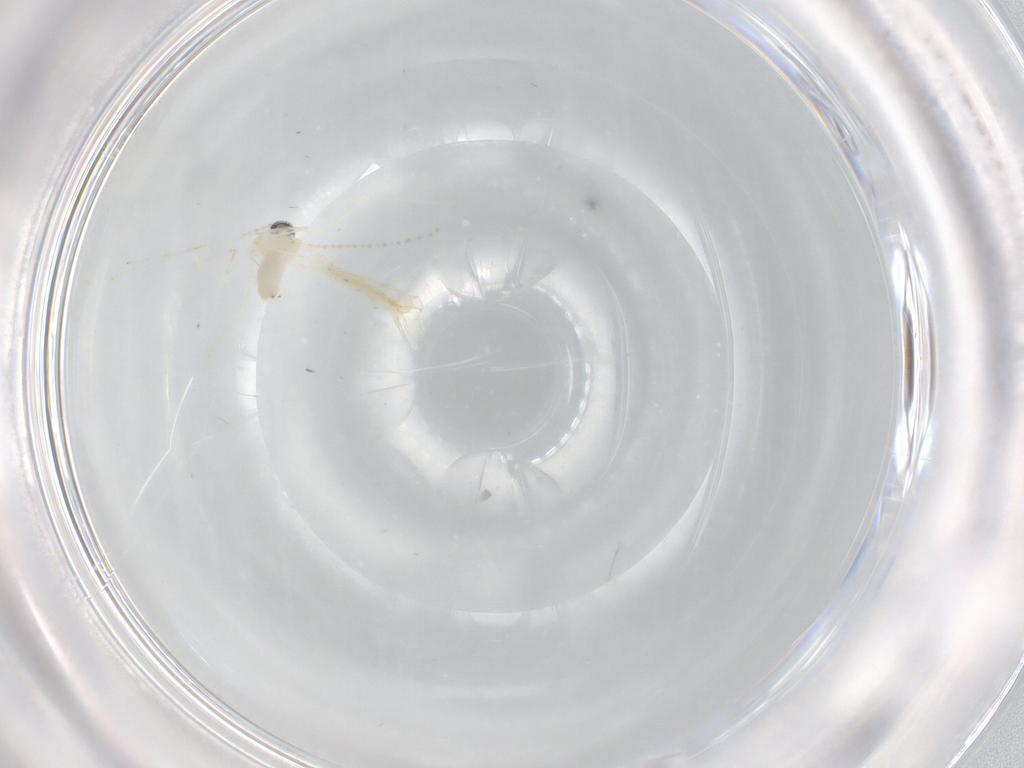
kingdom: Animalia
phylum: Arthropoda
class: Insecta
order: Diptera
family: Cecidomyiidae
